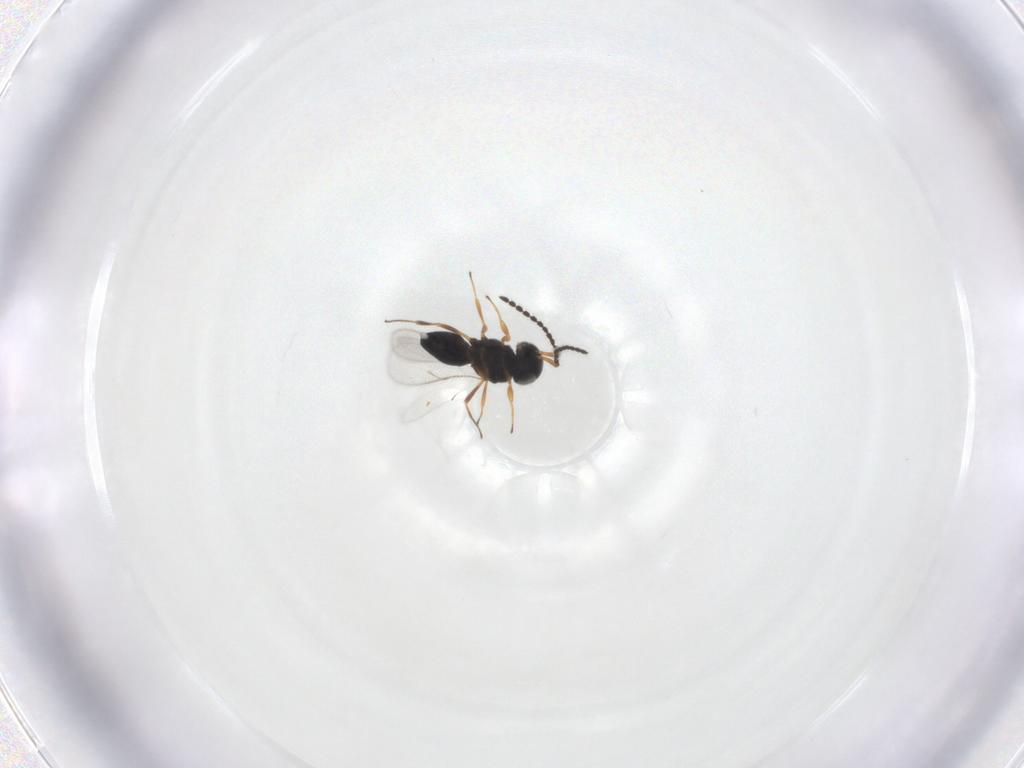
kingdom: Animalia
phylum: Arthropoda
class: Insecta
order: Hymenoptera
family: Scelionidae
